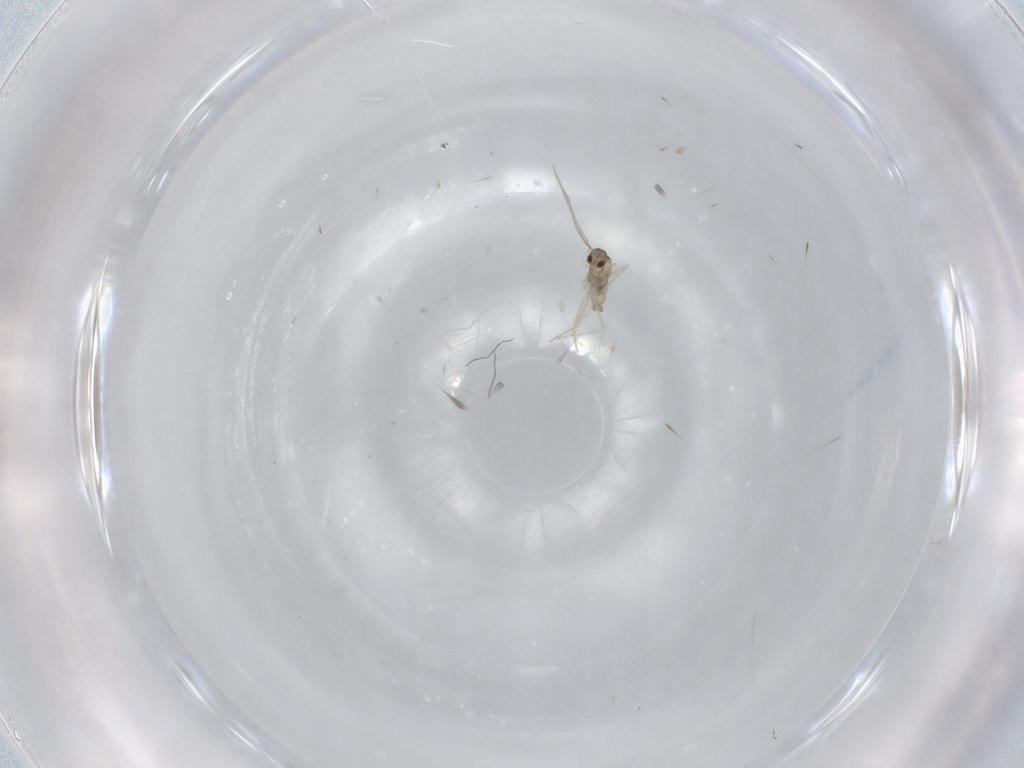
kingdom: Animalia
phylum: Arthropoda
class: Insecta
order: Diptera
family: Cecidomyiidae
